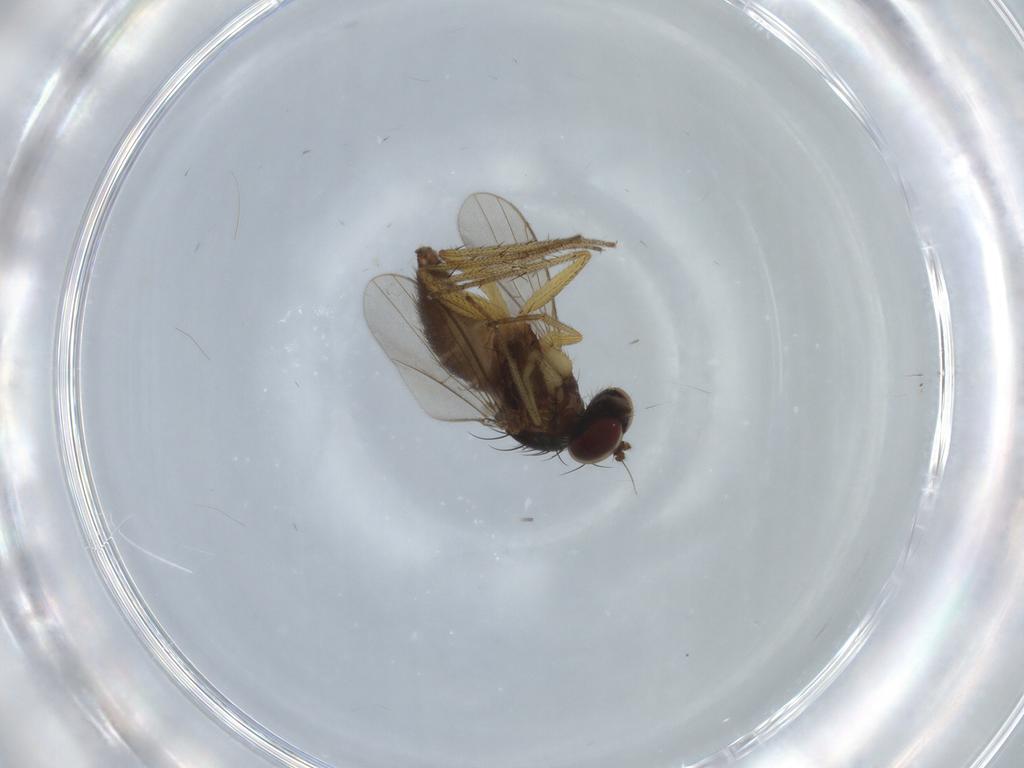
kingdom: Animalia
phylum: Arthropoda
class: Insecta
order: Diptera
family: Dolichopodidae
